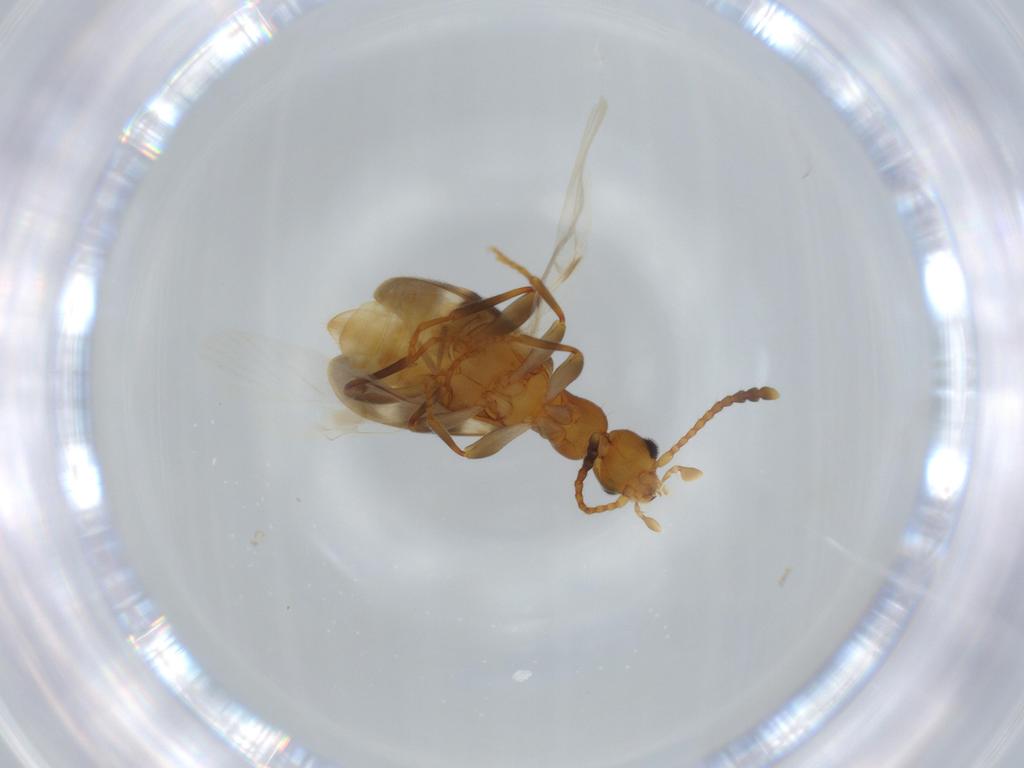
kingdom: Animalia
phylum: Arthropoda
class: Insecta
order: Coleoptera
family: Anthicidae
